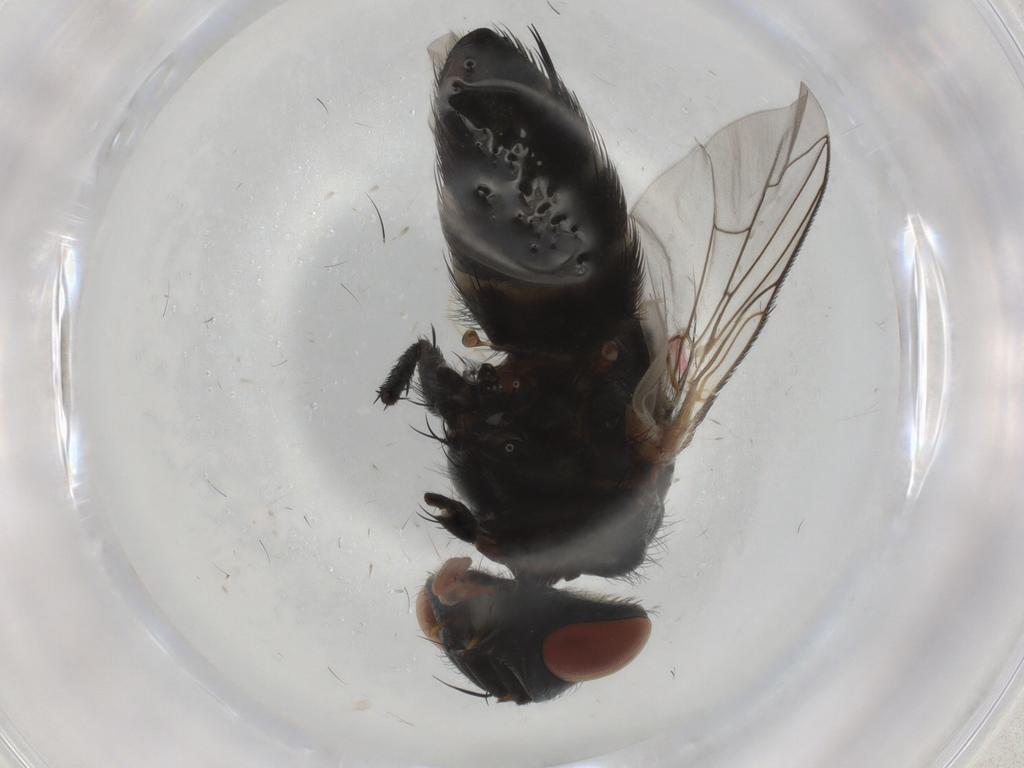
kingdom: Animalia
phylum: Arthropoda
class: Insecta
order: Diptera
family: Sarcophagidae
